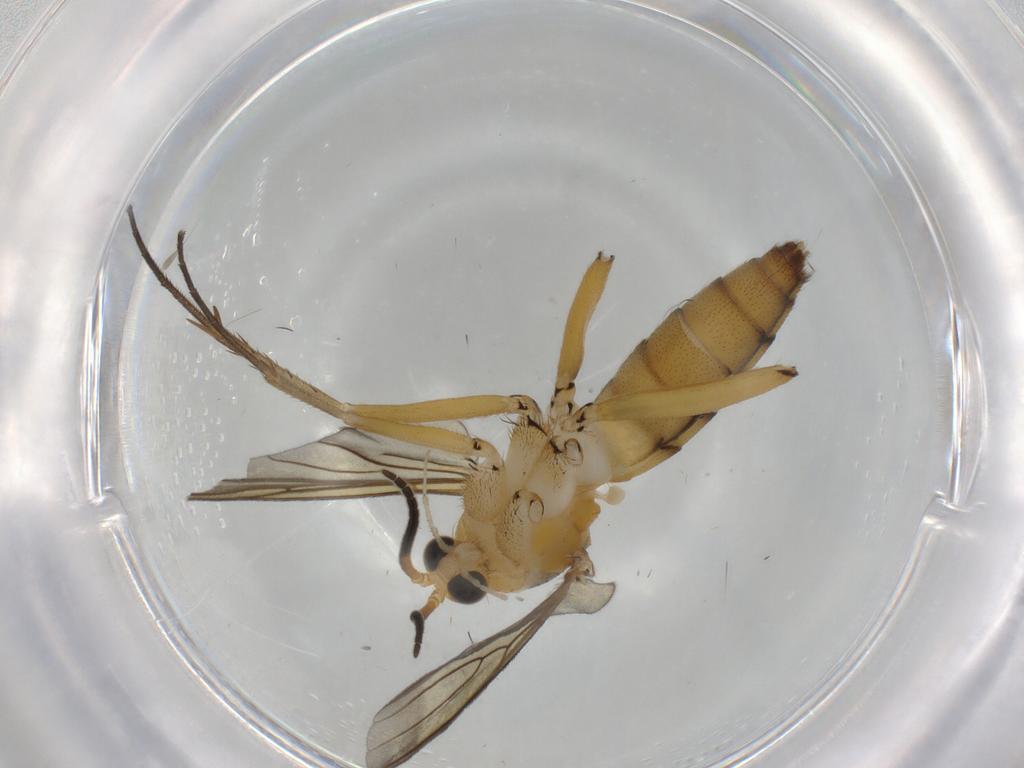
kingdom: Animalia
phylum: Arthropoda
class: Insecta
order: Diptera
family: Mycetophilidae
